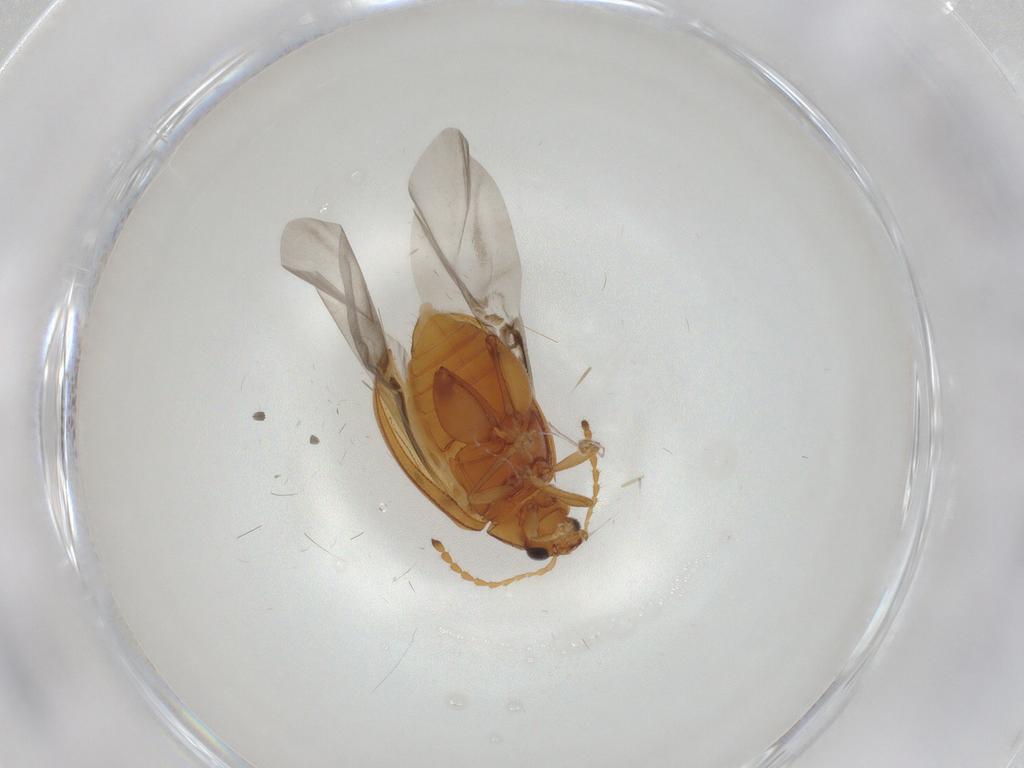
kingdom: Animalia
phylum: Arthropoda
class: Insecta
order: Coleoptera
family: Chrysomelidae
